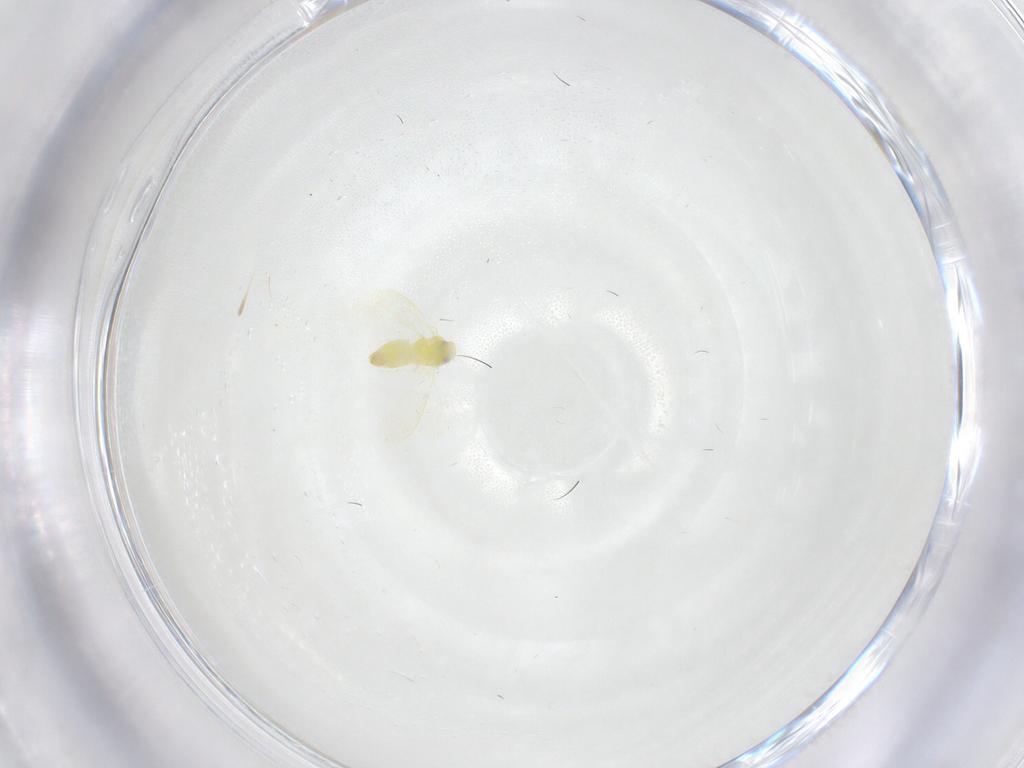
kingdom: Animalia
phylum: Arthropoda
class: Insecta
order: Hemiptera
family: Aleyrodidae
